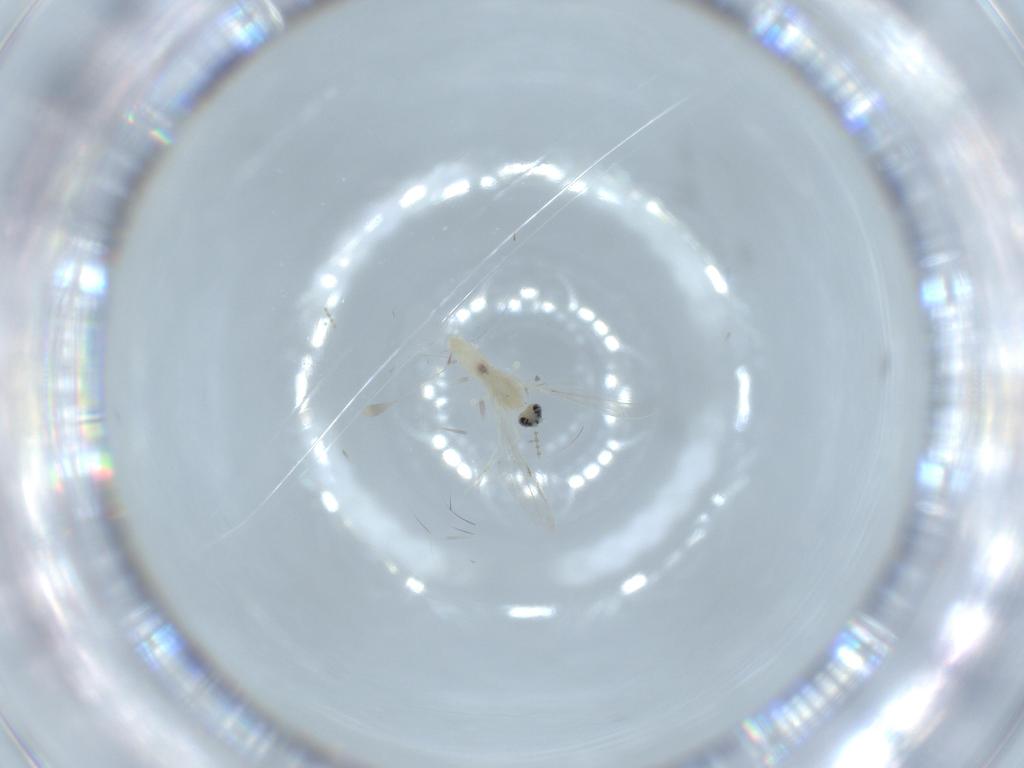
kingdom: Animalia
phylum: Arthropoda
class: Insecta
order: Diptera
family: Cecidomyiidae
